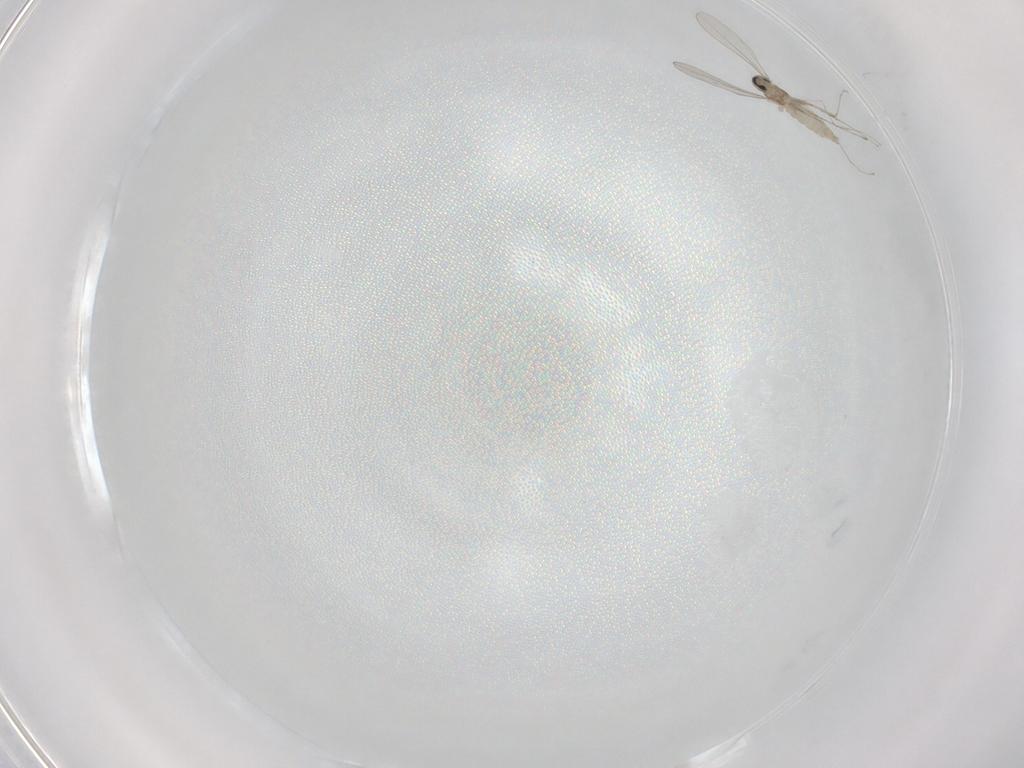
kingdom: Animalia
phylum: Arthropoda
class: Insecta
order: Diptera
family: Cecidomyiidae
